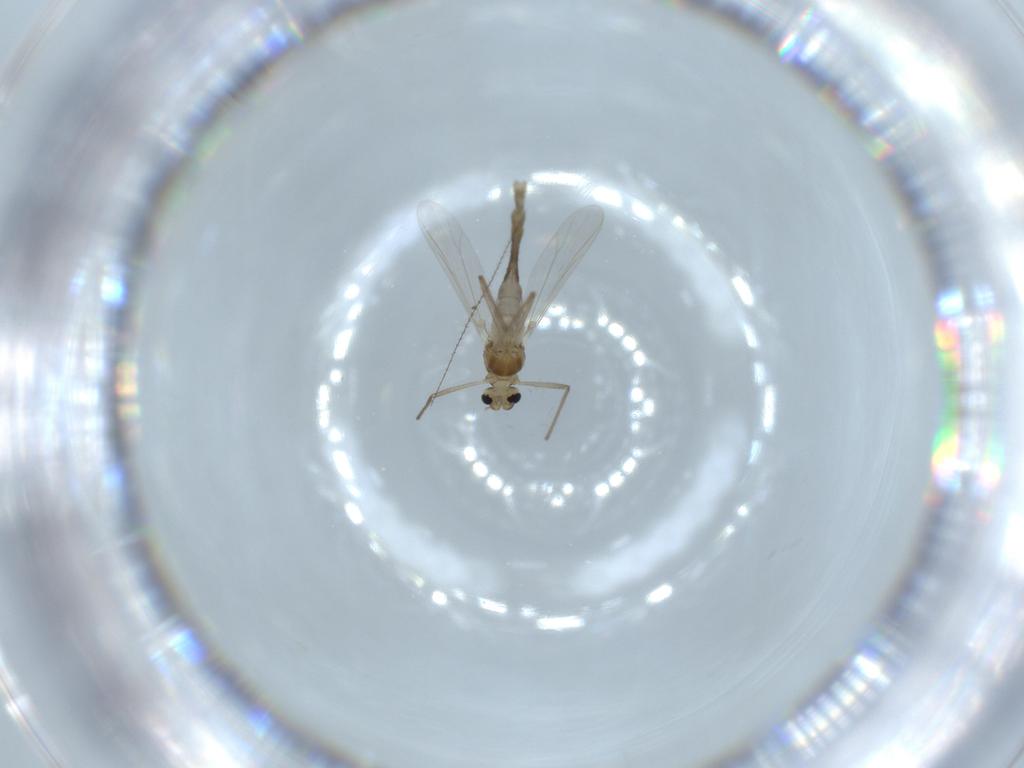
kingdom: Animalia
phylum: Arthropoda
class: Insecta
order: Diptera
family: Chironomidae
